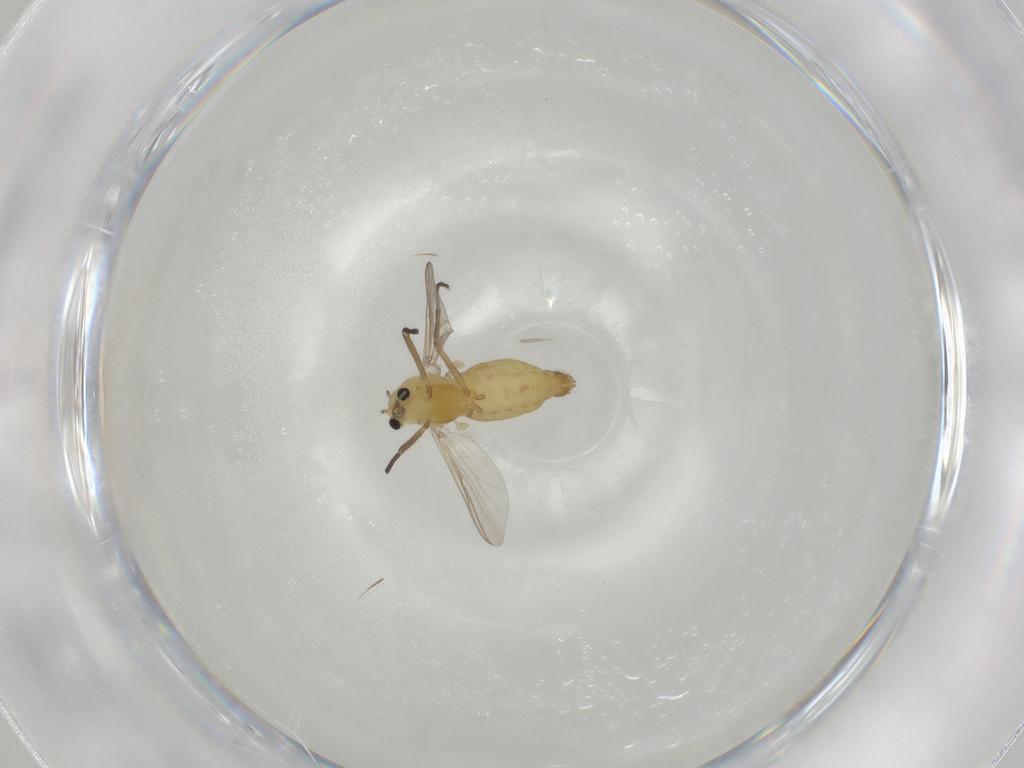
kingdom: Animalia
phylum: Arthropoda
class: Insecta
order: Diptera
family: Chironomidae
